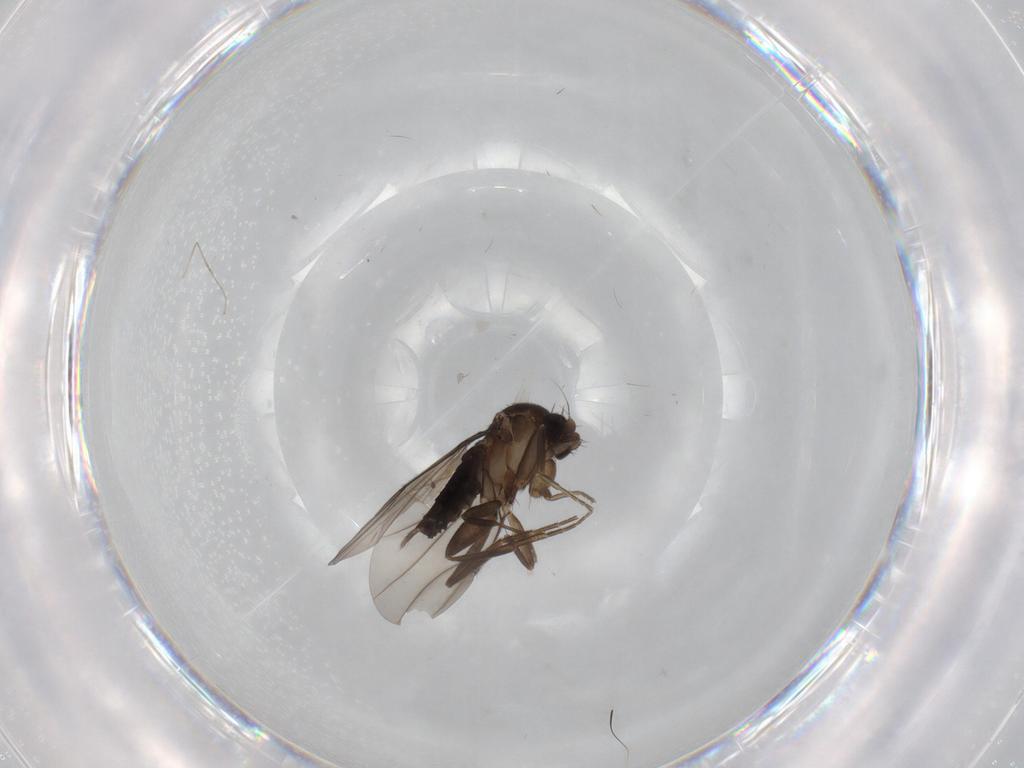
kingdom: Animalia
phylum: Arthropoda
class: Insecta
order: Diptera
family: Phoridae
